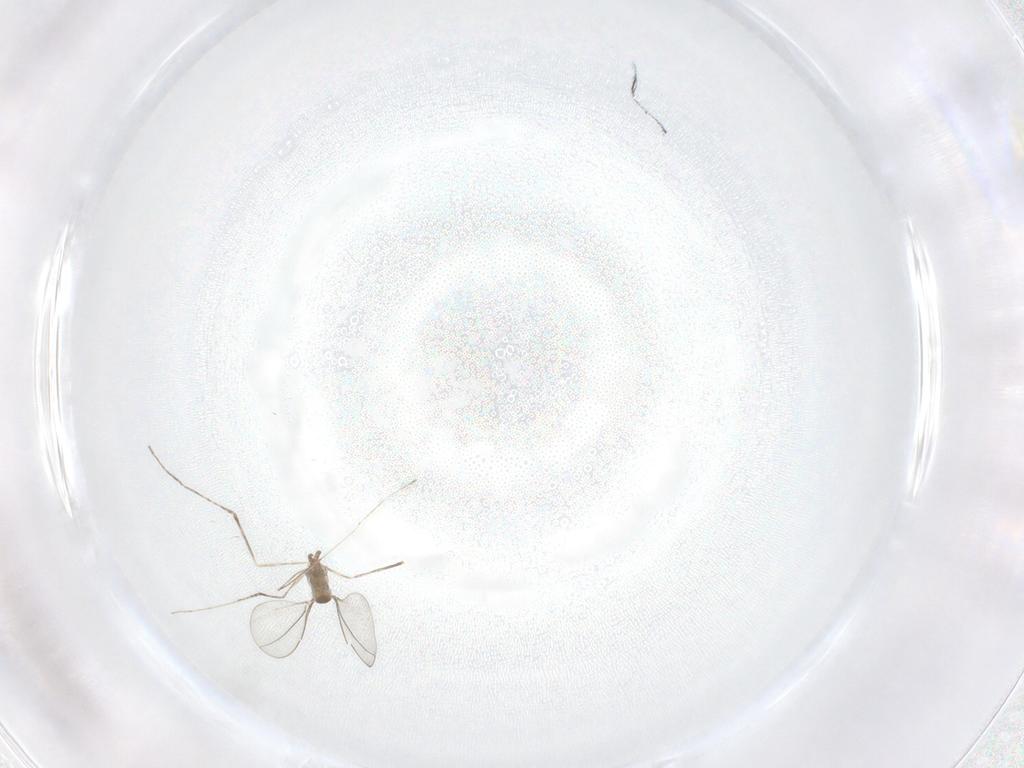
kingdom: Animalia
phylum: Arthropoda
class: Insecta
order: Diptera
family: Cecidomyiidae
